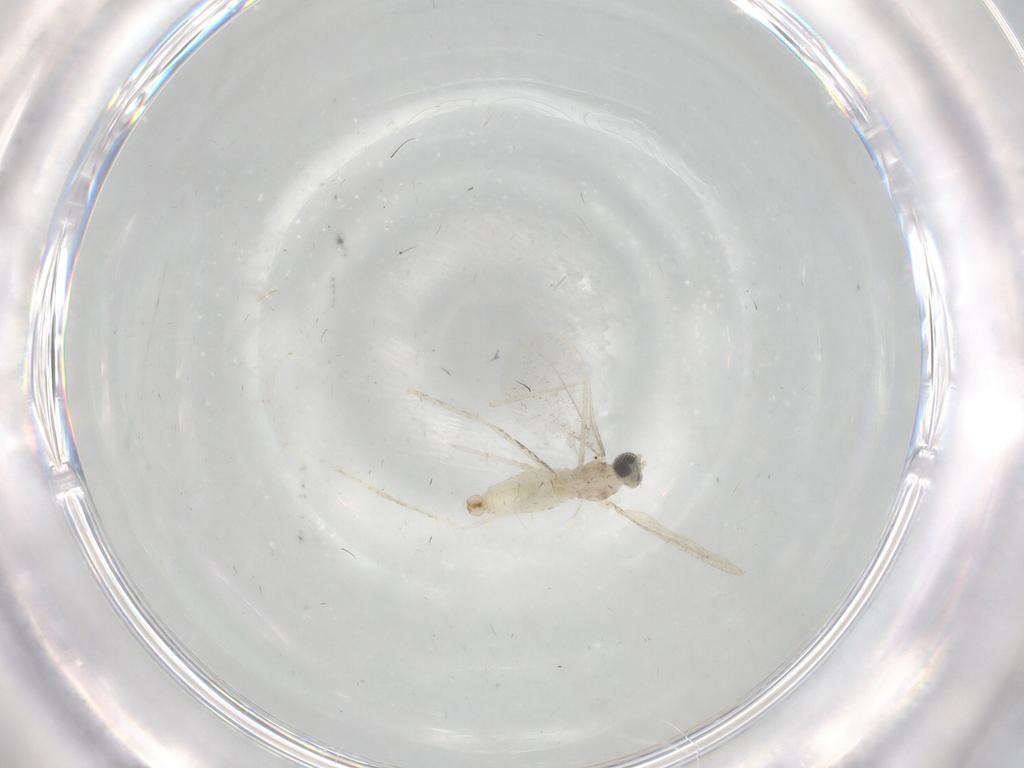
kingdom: Animalia
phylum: Arthropoda
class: Insecta
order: Diptera
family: Cecidomyiidae
